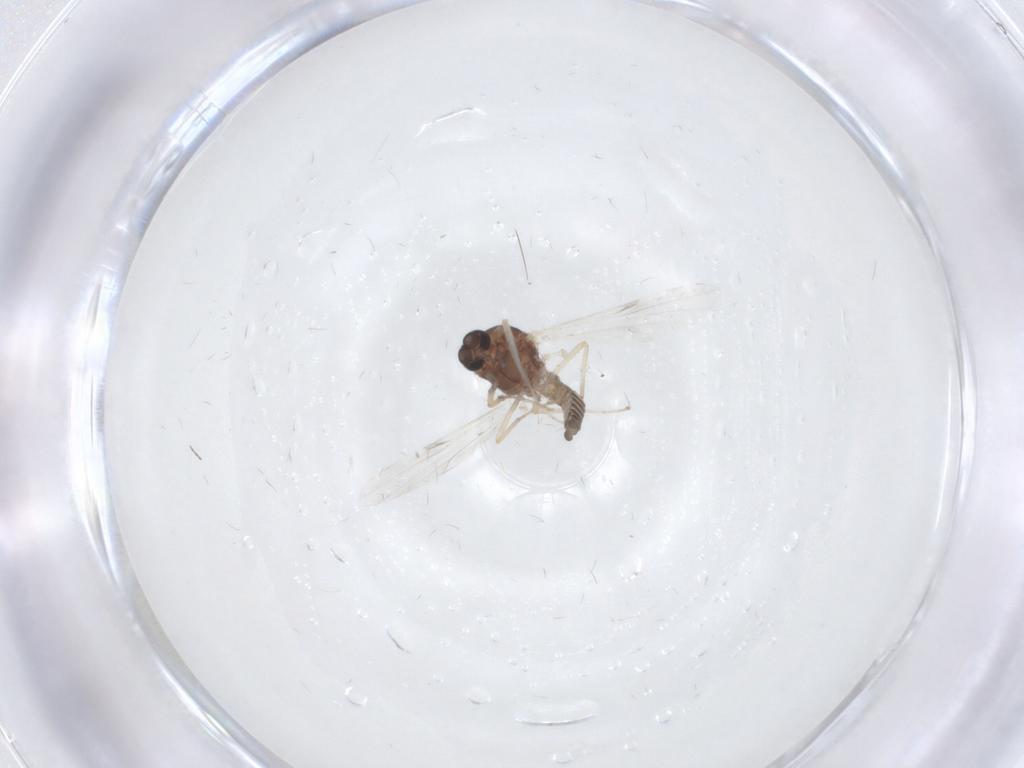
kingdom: Animalia
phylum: Arthropoda
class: Insecta
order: Diptera
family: Ceratopogonidae
